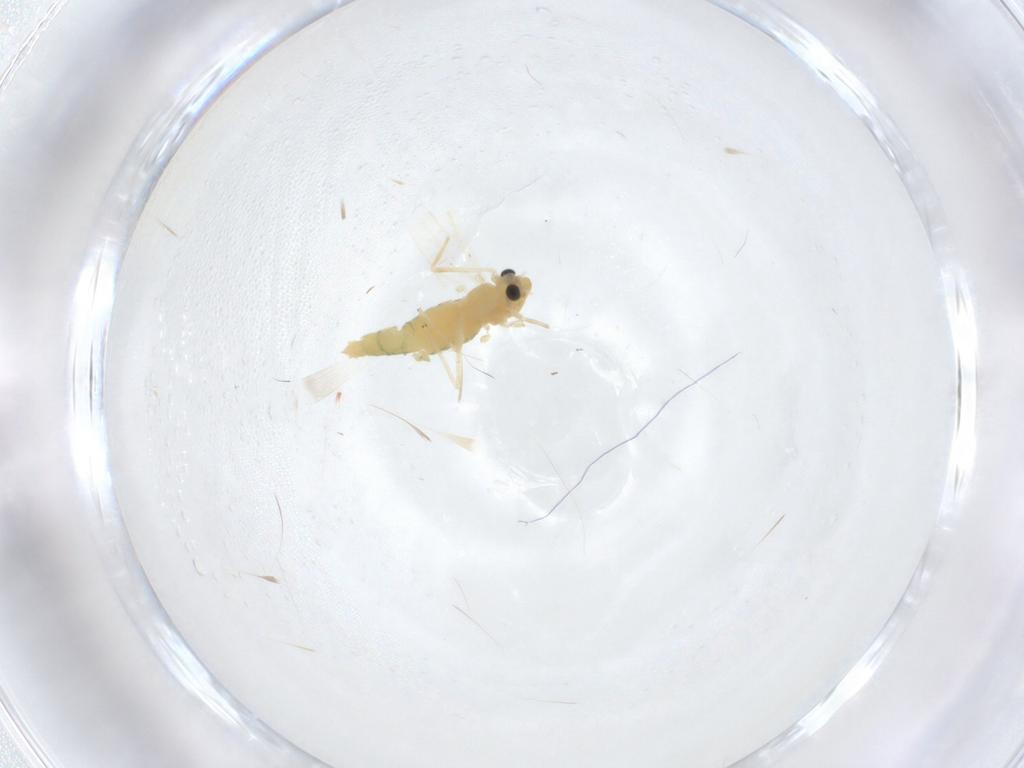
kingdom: Animalia
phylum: Arthropoda
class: Insecta
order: Diptera
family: Chironomidae
